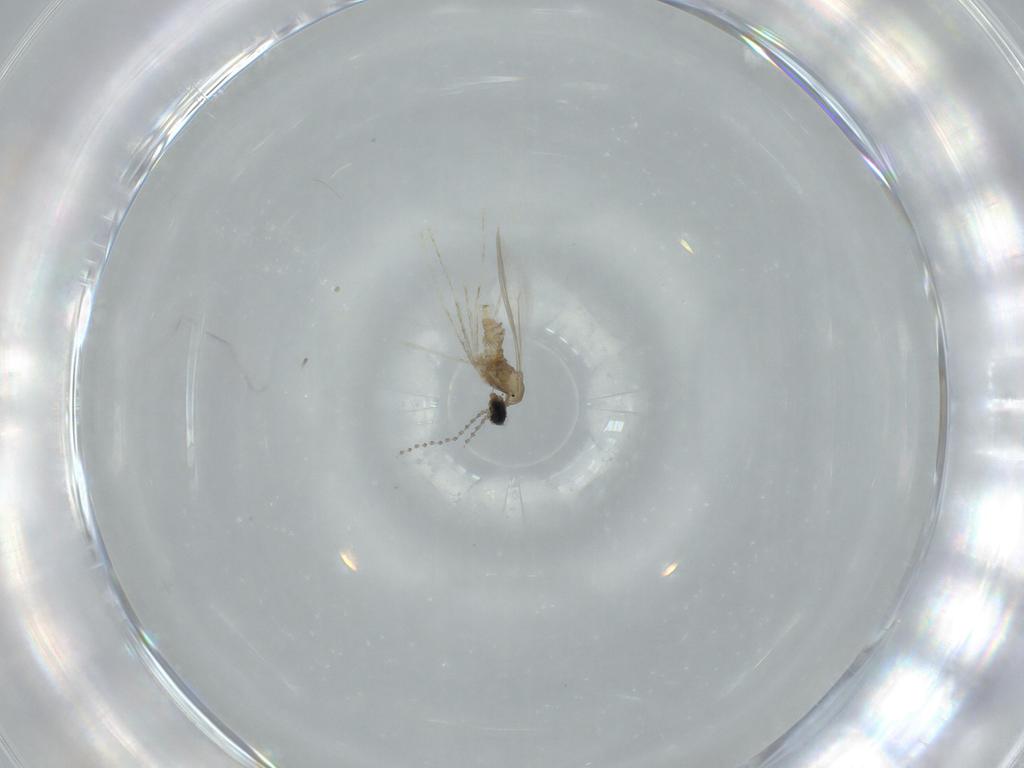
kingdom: Animalia
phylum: Arthropoda
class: Insecta
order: Diptera
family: Cecidomyiidae
